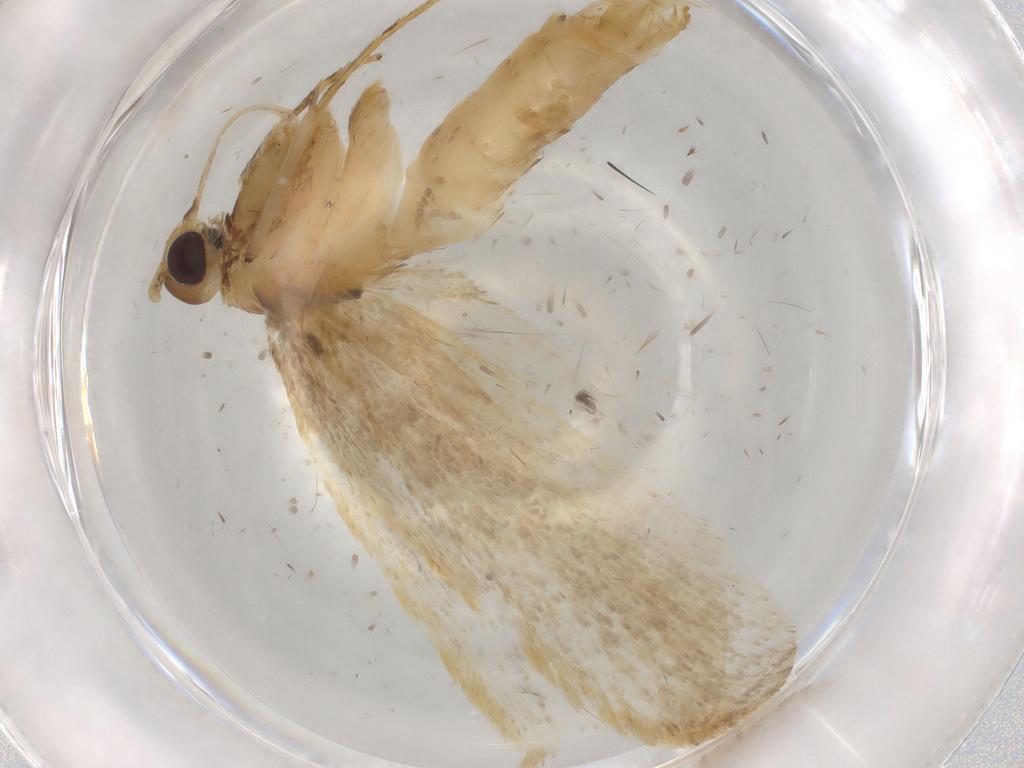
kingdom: Animalia
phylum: Arthropoda
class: Insecta
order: Lepidoptera
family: Lecithoceridae
